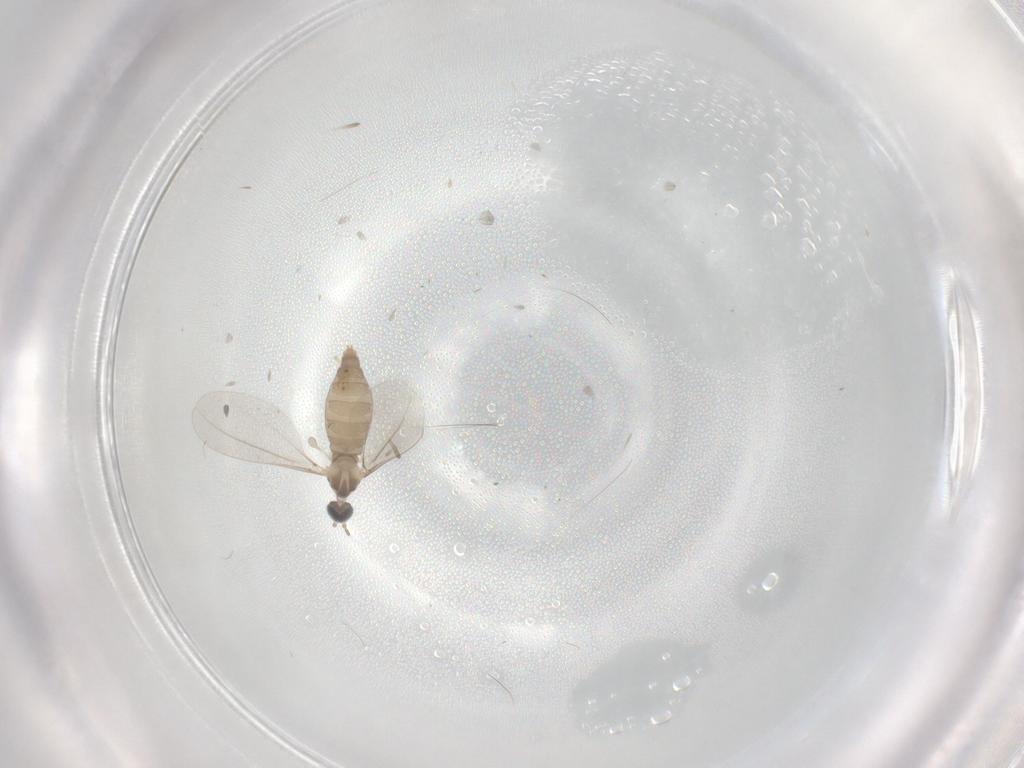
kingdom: Animalia
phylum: Arthropoda
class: Insecta
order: Diptera
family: Cecidomyiidae
